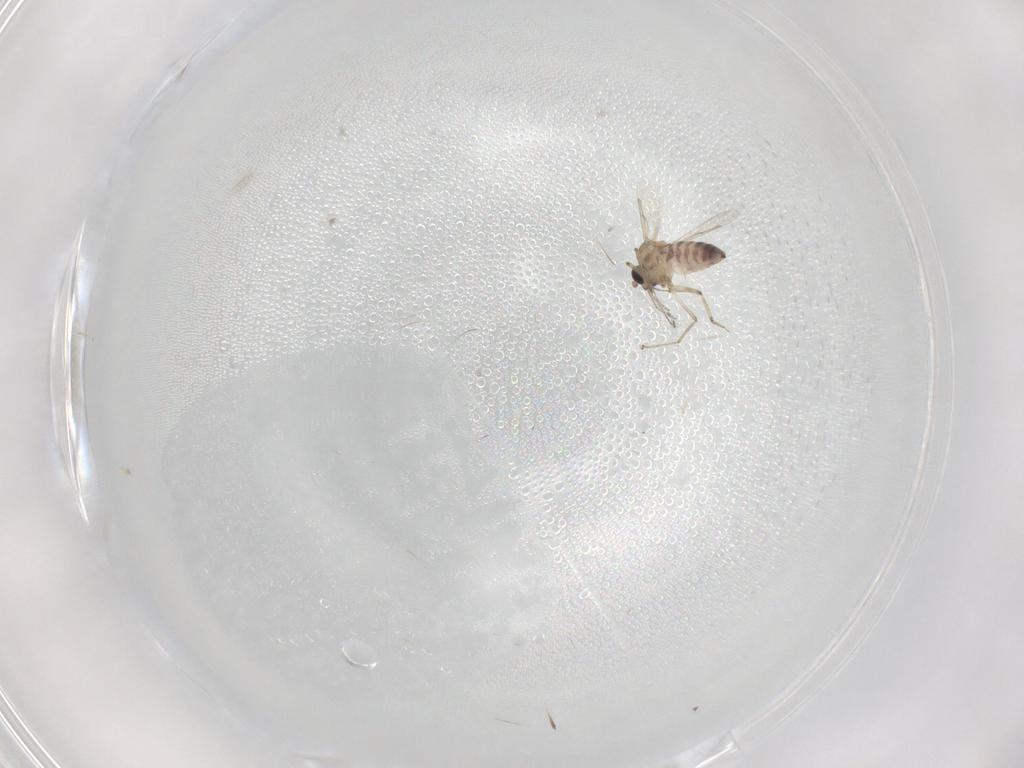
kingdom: Animalia
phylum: Arthropoda
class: Insecta
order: Diptera
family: Ceratopogonidae
